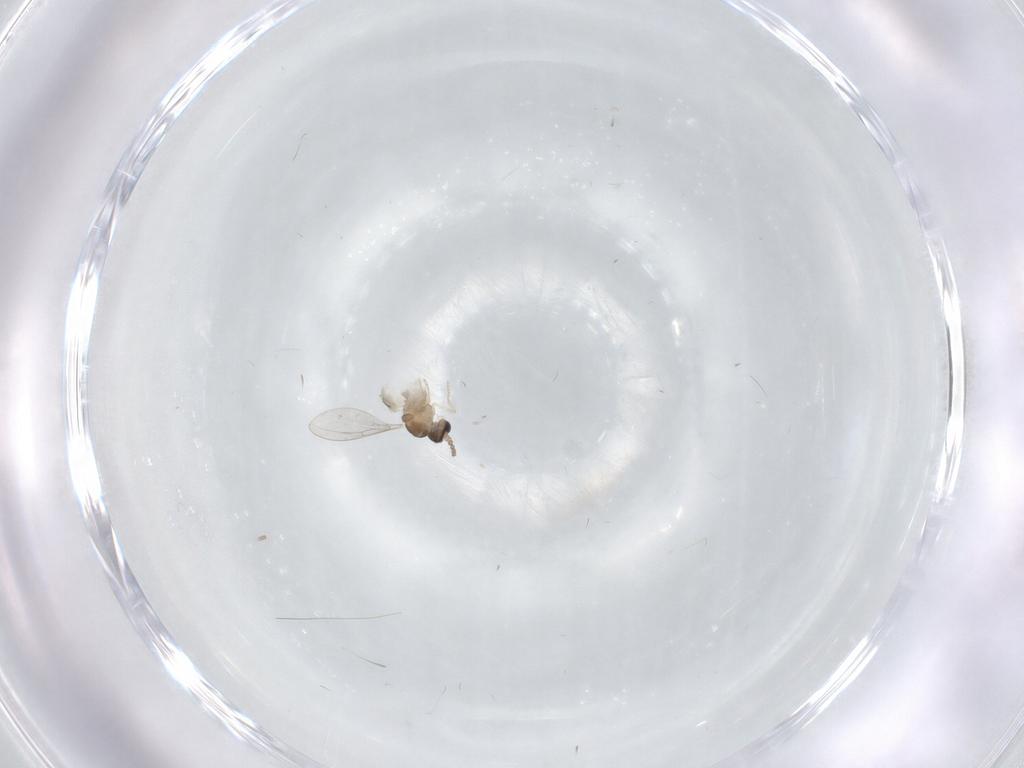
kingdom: Animalia
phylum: Arthropoda
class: Insecta
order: Diptera
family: Cecidomyiidae
